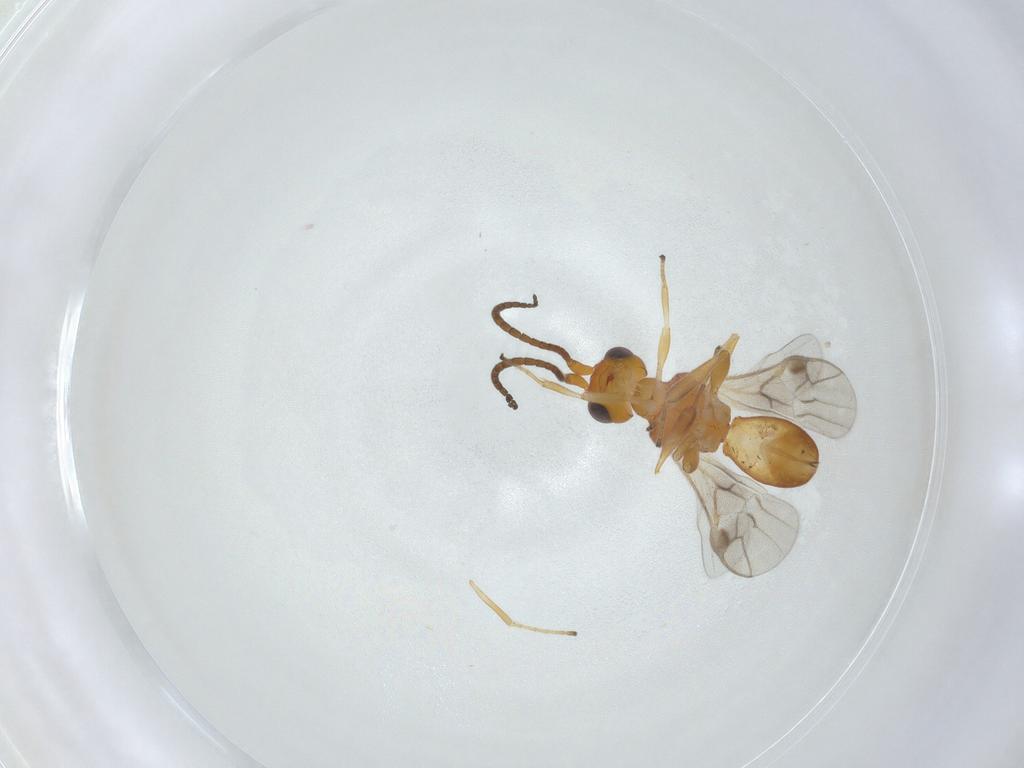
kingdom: Animalia
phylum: Arthropoda
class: Insecta
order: Hymenoptera
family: Braconidae
